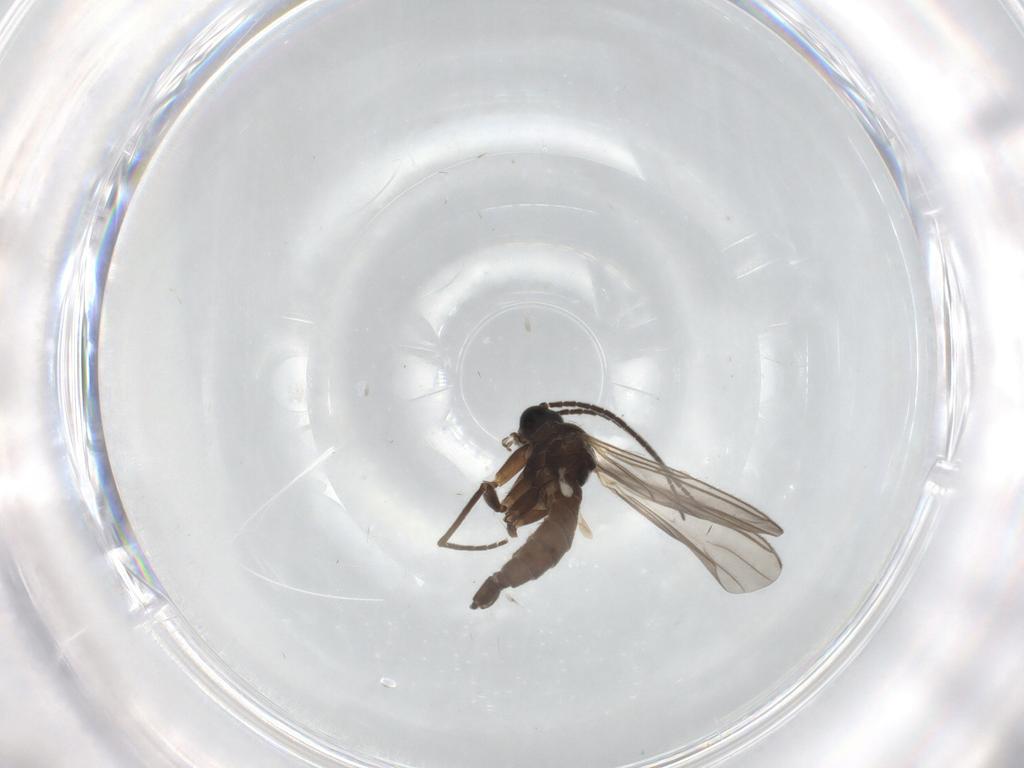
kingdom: Animalia
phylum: Arthropoda
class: Insecta
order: Diptera
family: Sciaridae
